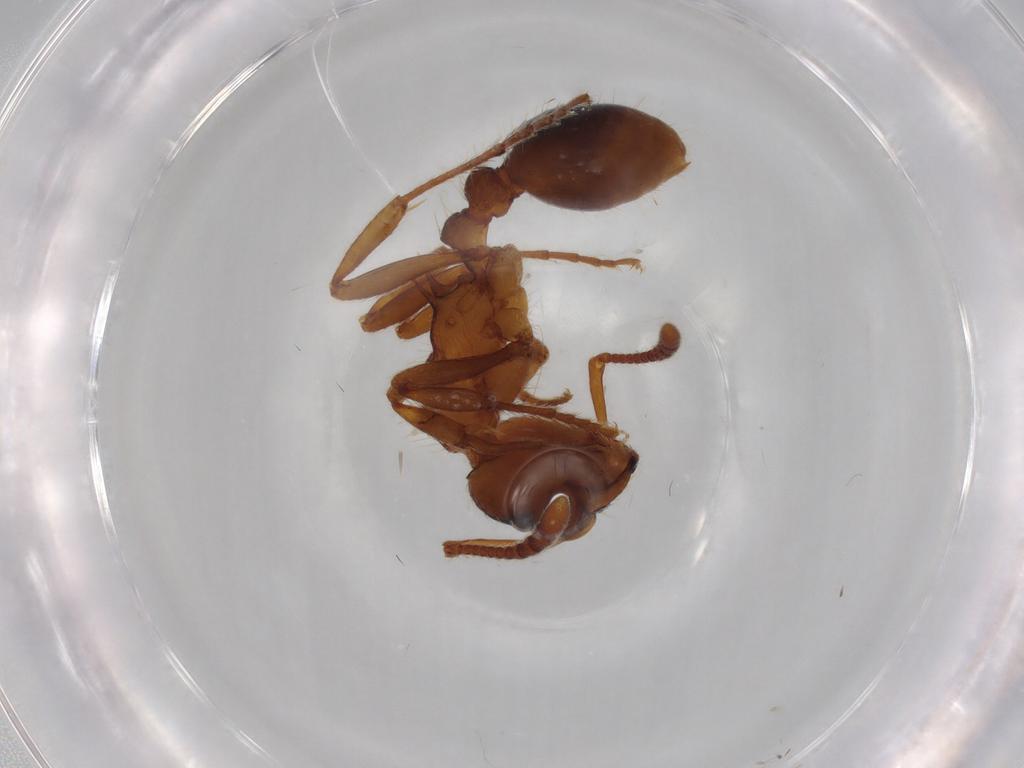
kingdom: Animalia
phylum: Arthropoda
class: Insecta
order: Hymenoptera
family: Formicidae
